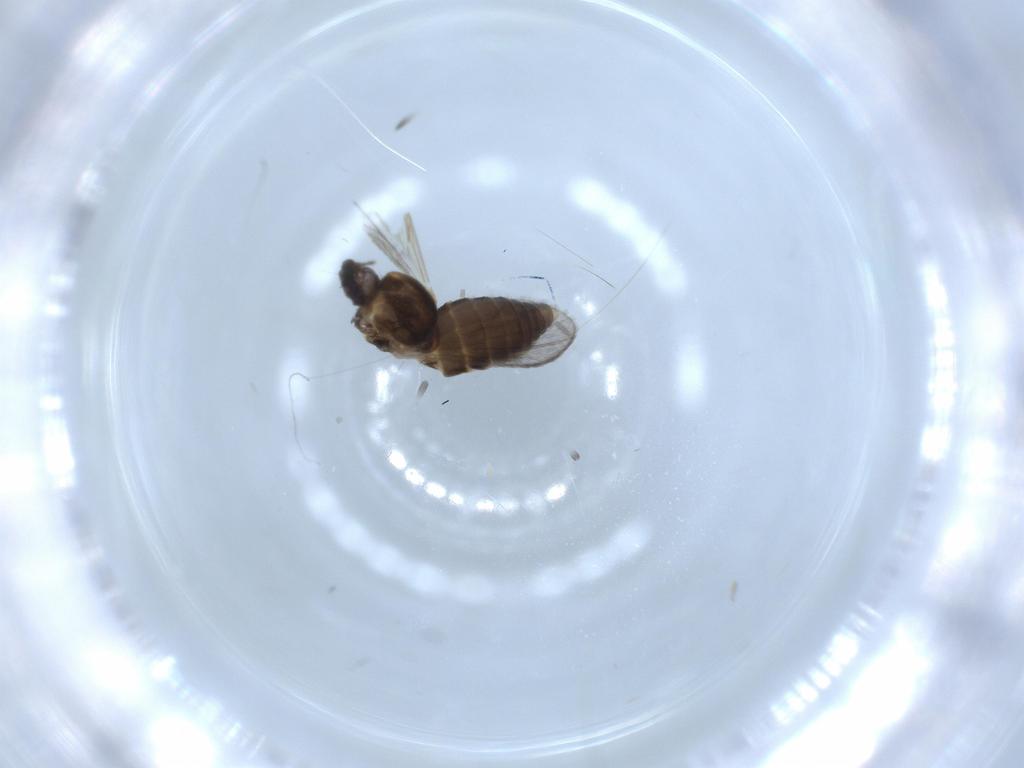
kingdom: Animalia
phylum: Arthropoda
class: Insecta
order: Diptera
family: Ceratopogonidae
